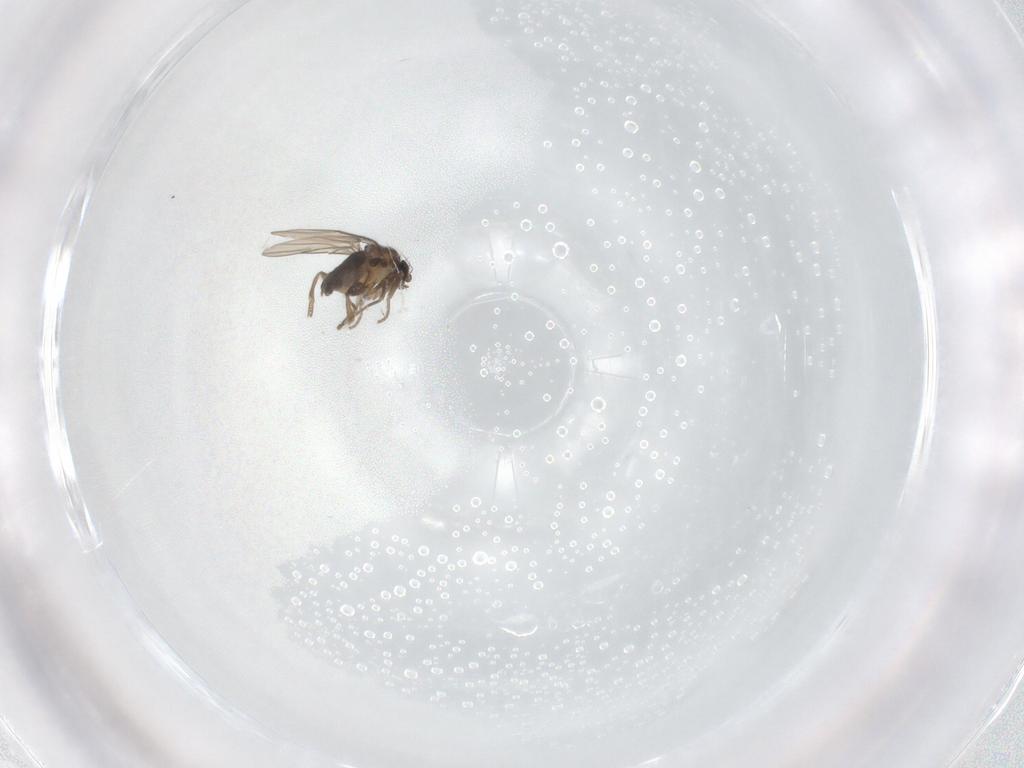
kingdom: Animalia
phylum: Arthropoda
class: Insecta
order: Diptera
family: Phoridae
